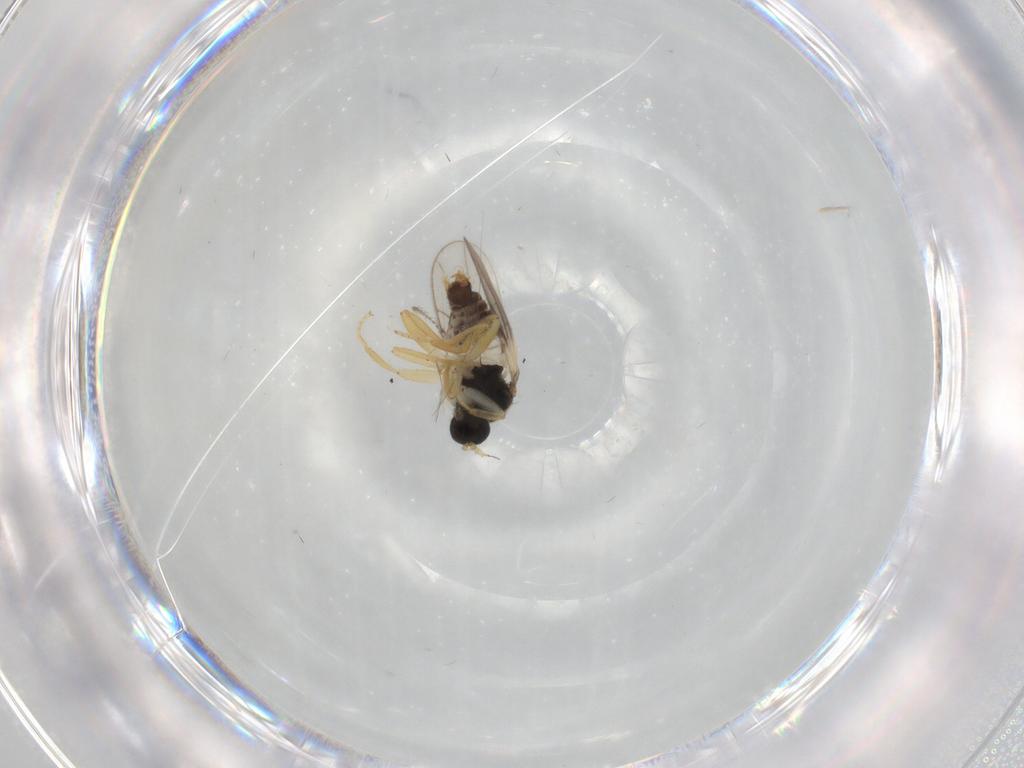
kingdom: Animalia
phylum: Arthropoda
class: Insecta
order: Diptera
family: Hybotidae
